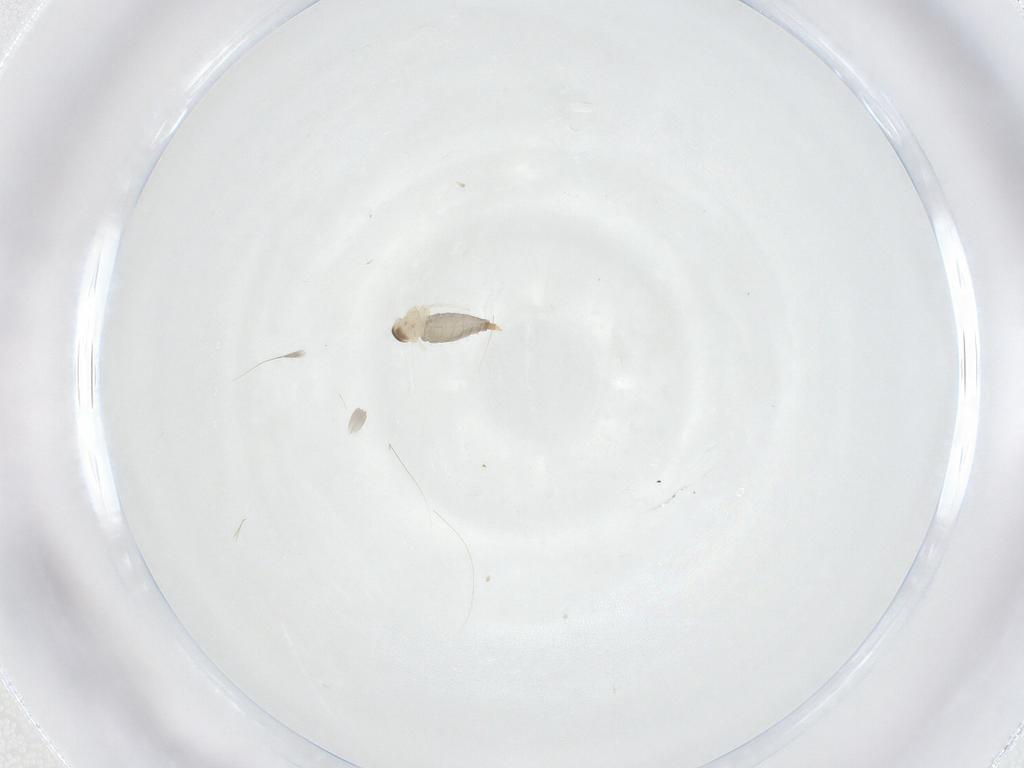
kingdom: Animalia
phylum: Arthropoda
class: Insecta
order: Diptera
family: Cecidomyiidae
